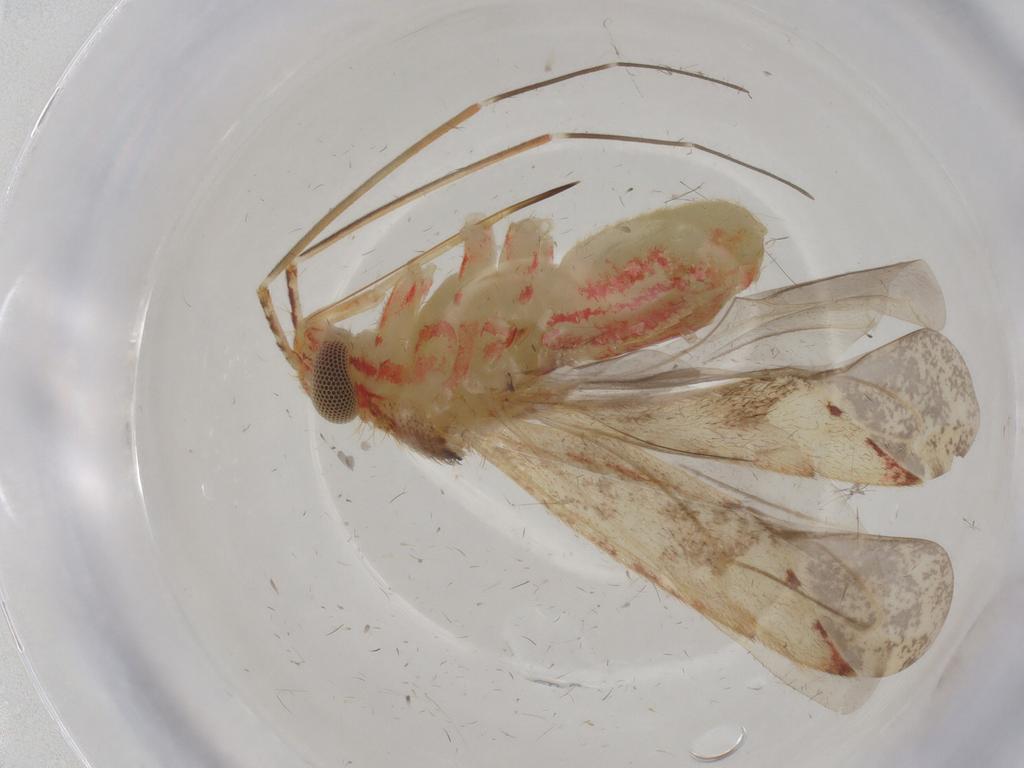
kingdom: Animalia
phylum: Arthropoda
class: Insecta
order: Hemiptera
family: Miridae
